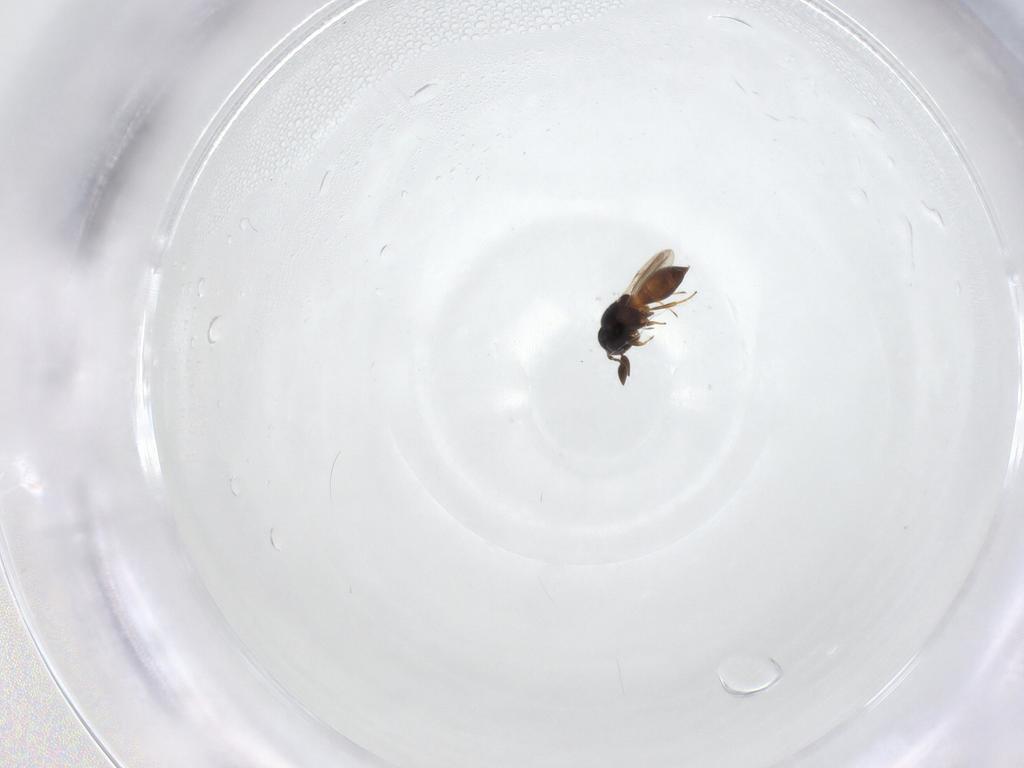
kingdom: Animalia
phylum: Arthropoda
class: Insecta
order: Hymenoptera
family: Scelionidae
